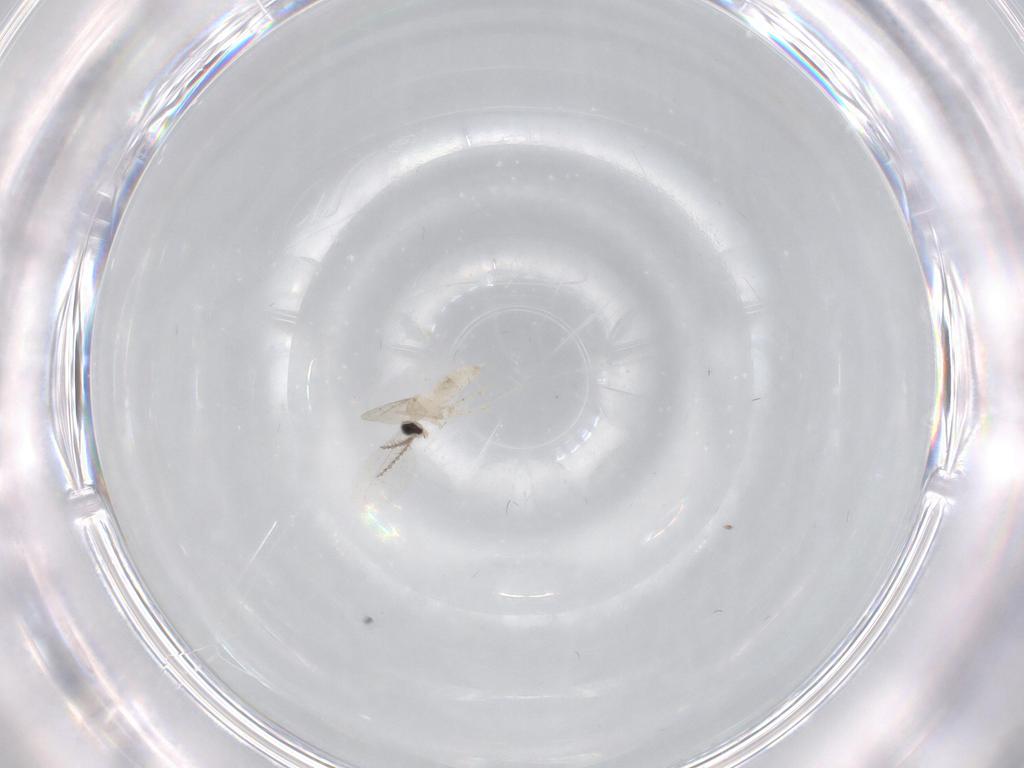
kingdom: Animalia
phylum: Arthropoda
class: Insecta
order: Diptera
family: Cecidomyiidae
